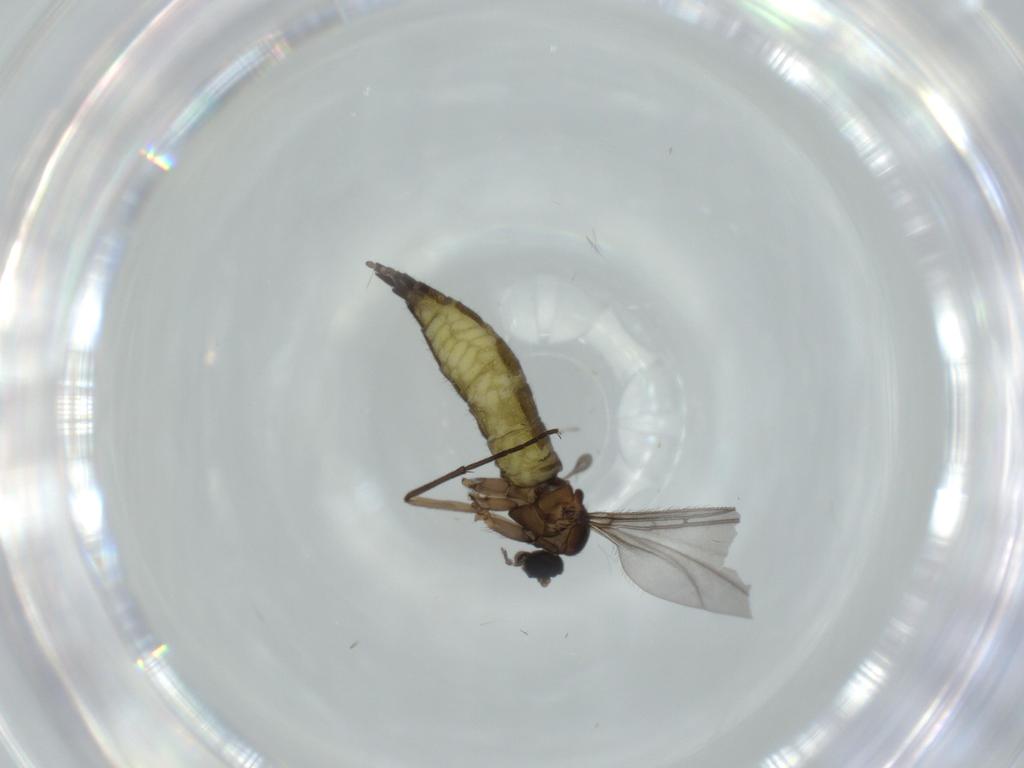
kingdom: Animalia
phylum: Arthropoda
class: Insecta
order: Diptera
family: Sciaridae
